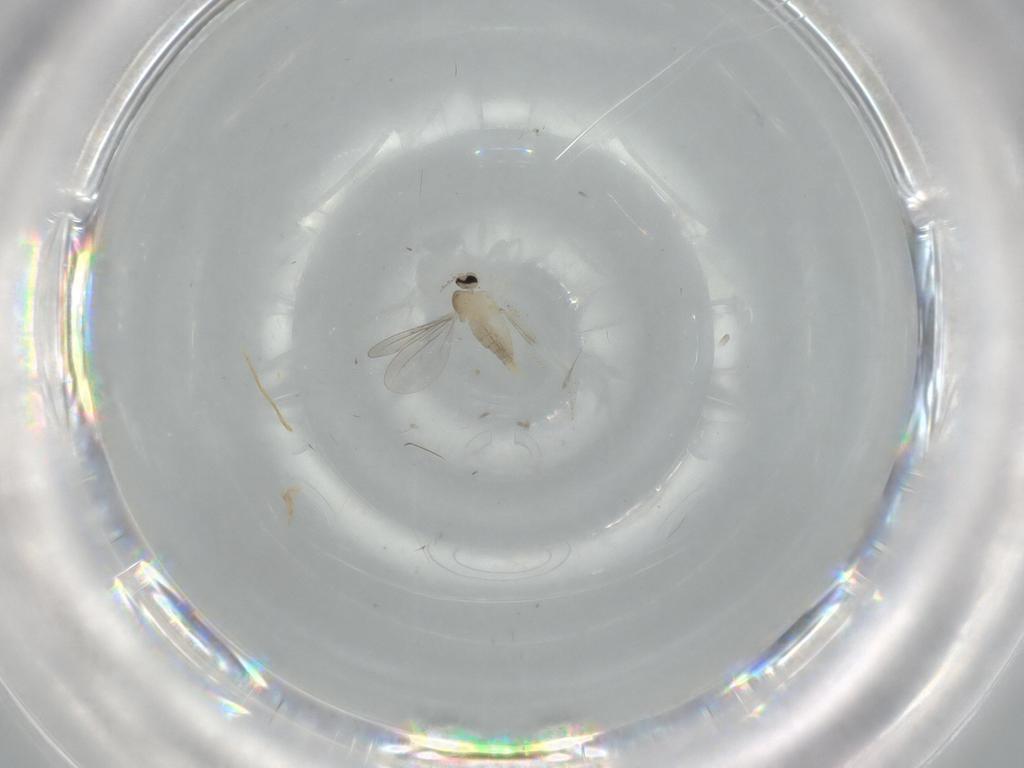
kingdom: Animalia
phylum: Arthropoda
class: Insecta
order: Diptera
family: Cecidomyiidae
